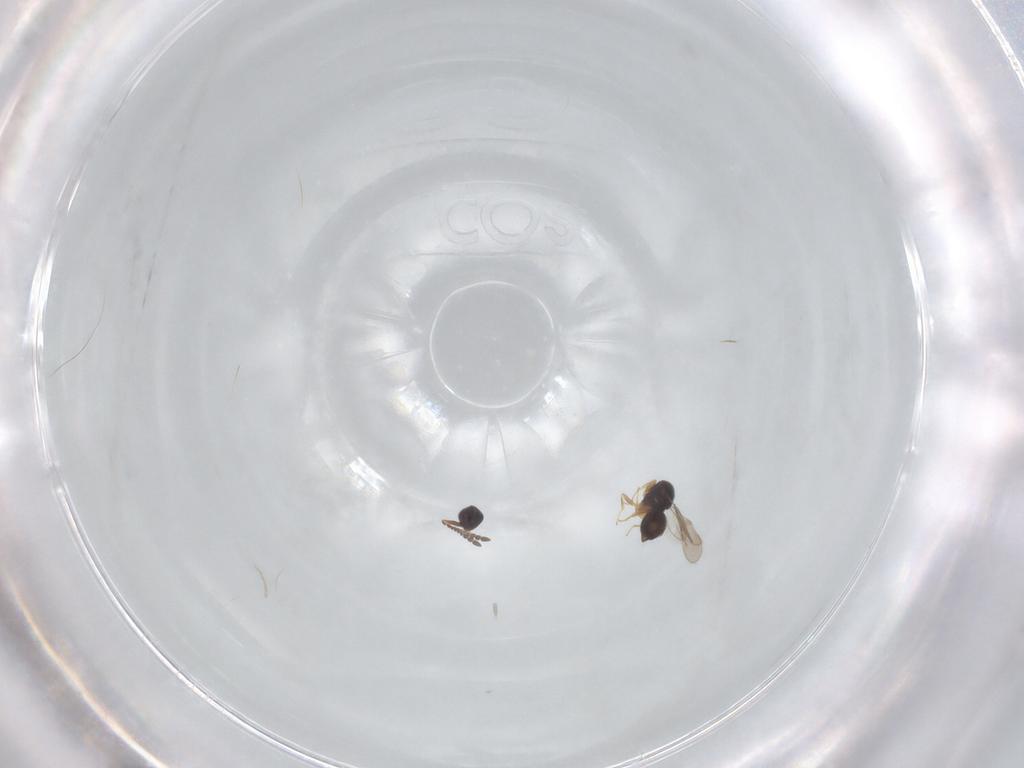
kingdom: Animalia
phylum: Arthropoda
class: Insecta
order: Hymenoptera
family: Ceraphronidae
